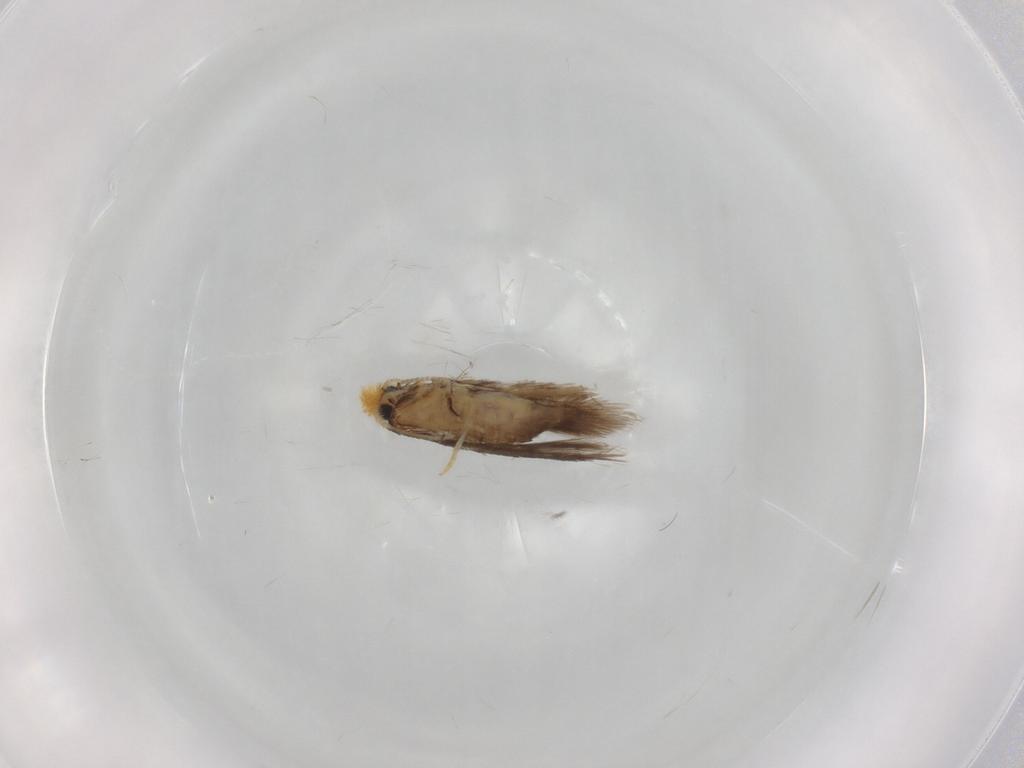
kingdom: Animalia
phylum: Arthropoda
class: Insecta
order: Lepidoptera
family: Nepticulidae
